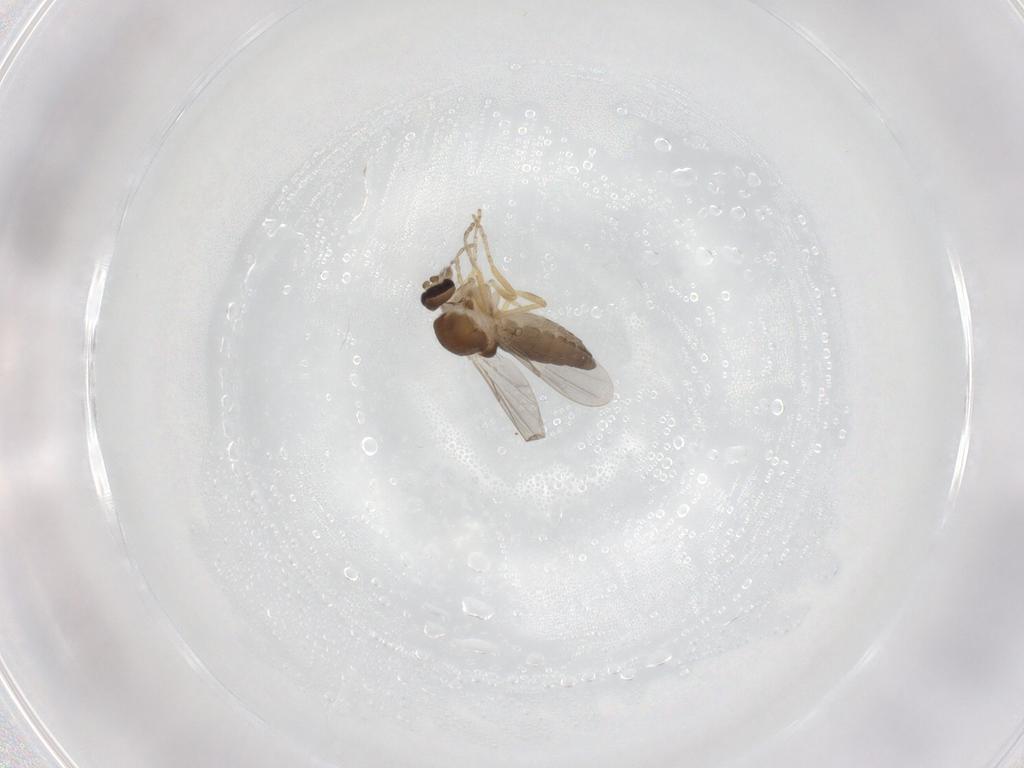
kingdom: Animalia
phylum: Arthropoda
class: Insecta
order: Diptera
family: Ceratopogonidae
